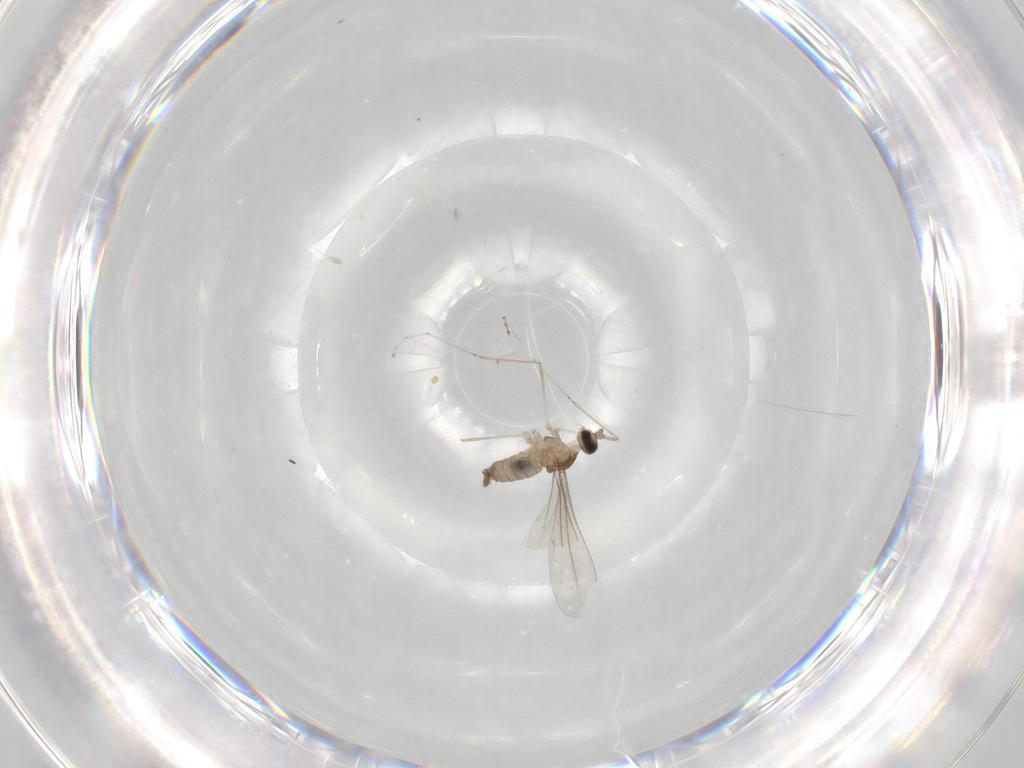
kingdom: Animalia
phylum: Arthropoda
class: Insecta
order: Diptera
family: Cecidomyiidae
